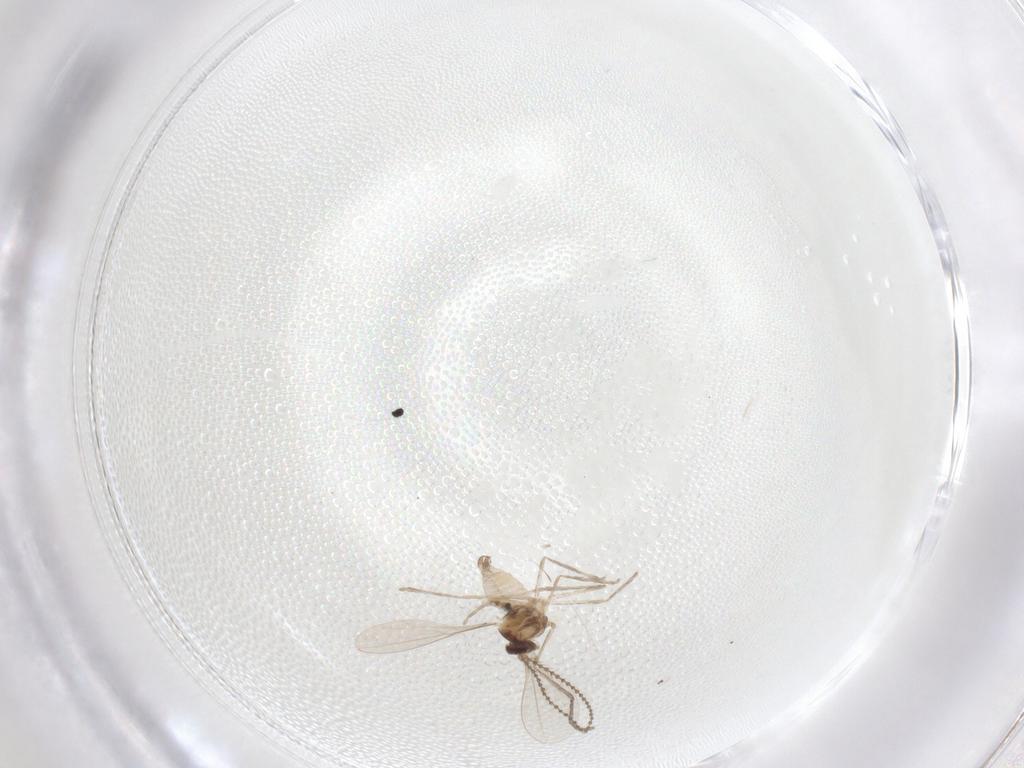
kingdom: Animalia
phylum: Arthropoda
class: Insecta
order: Diptera
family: Cecidomyiidae
